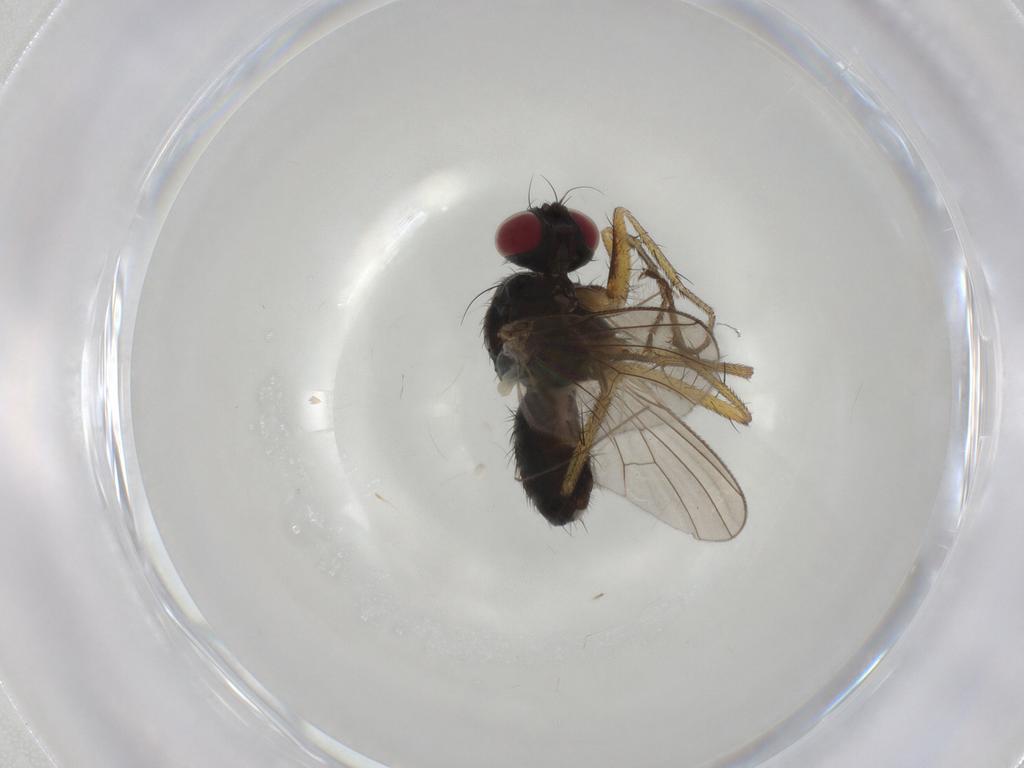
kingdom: Animalia
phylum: Arthropoda
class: Insecta
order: Diptera
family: Muscidae
